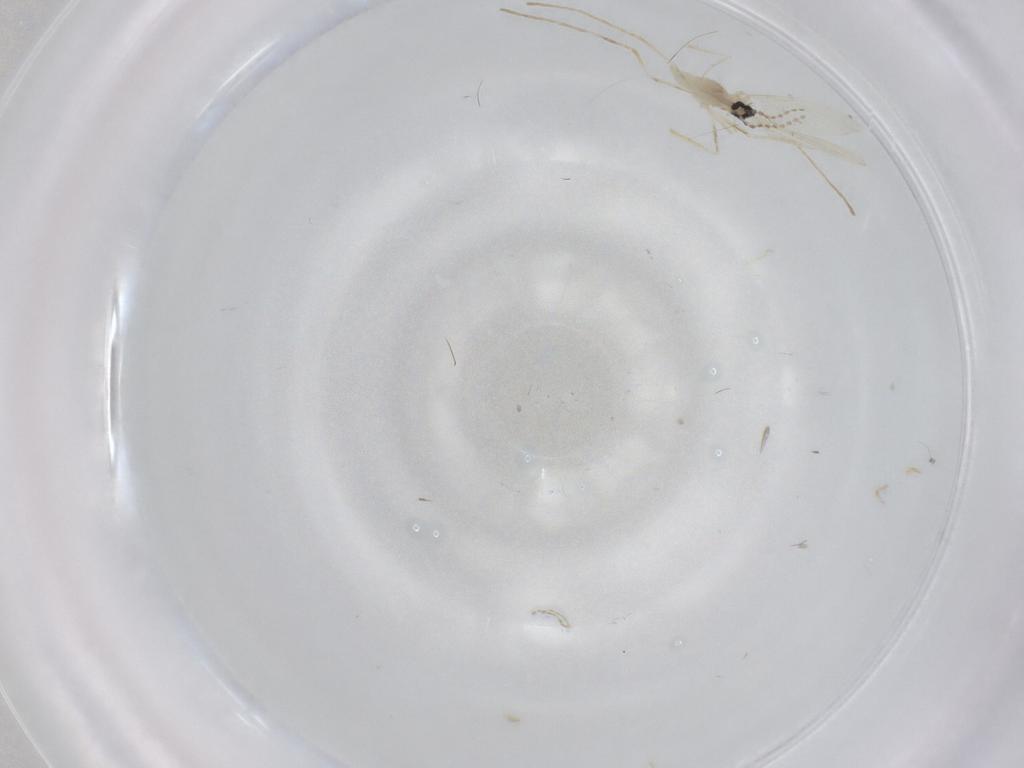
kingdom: Animalia
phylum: Arthropoda
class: Insecta
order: Diptera
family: Cecidomyiidae
